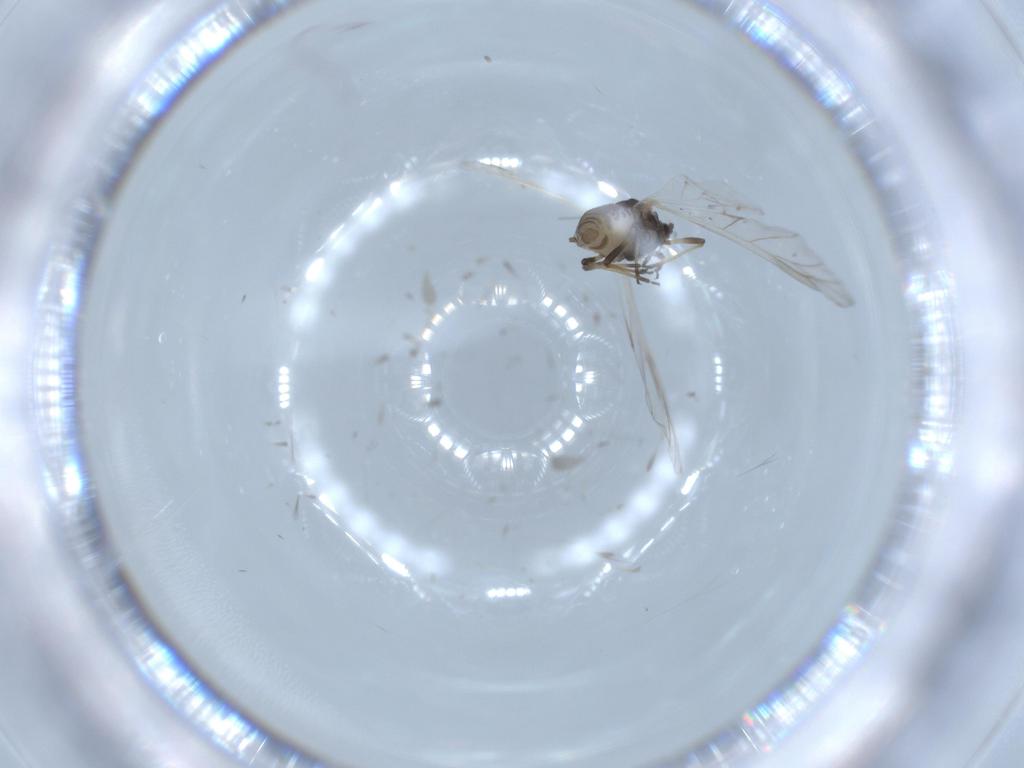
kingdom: Animalia
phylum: Arthropoda
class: Insecta
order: Hemiptera
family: Aphididae
